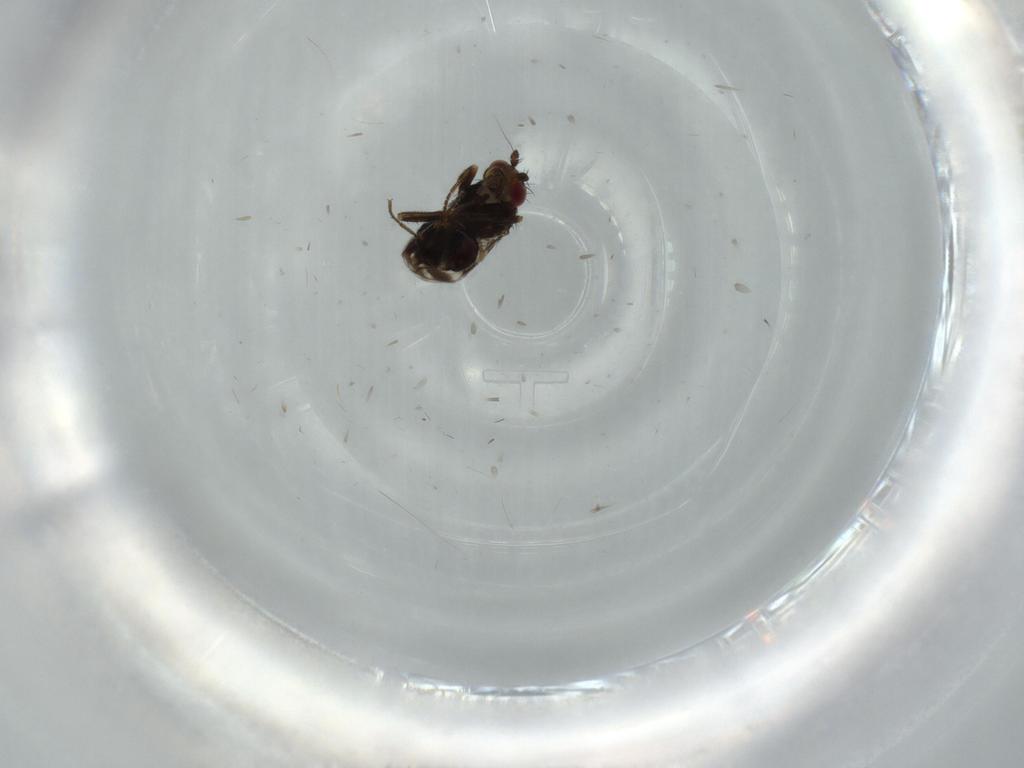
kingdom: Animalia
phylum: Arthropoda
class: Insecta
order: Diptera
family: Sphaeroceridae
